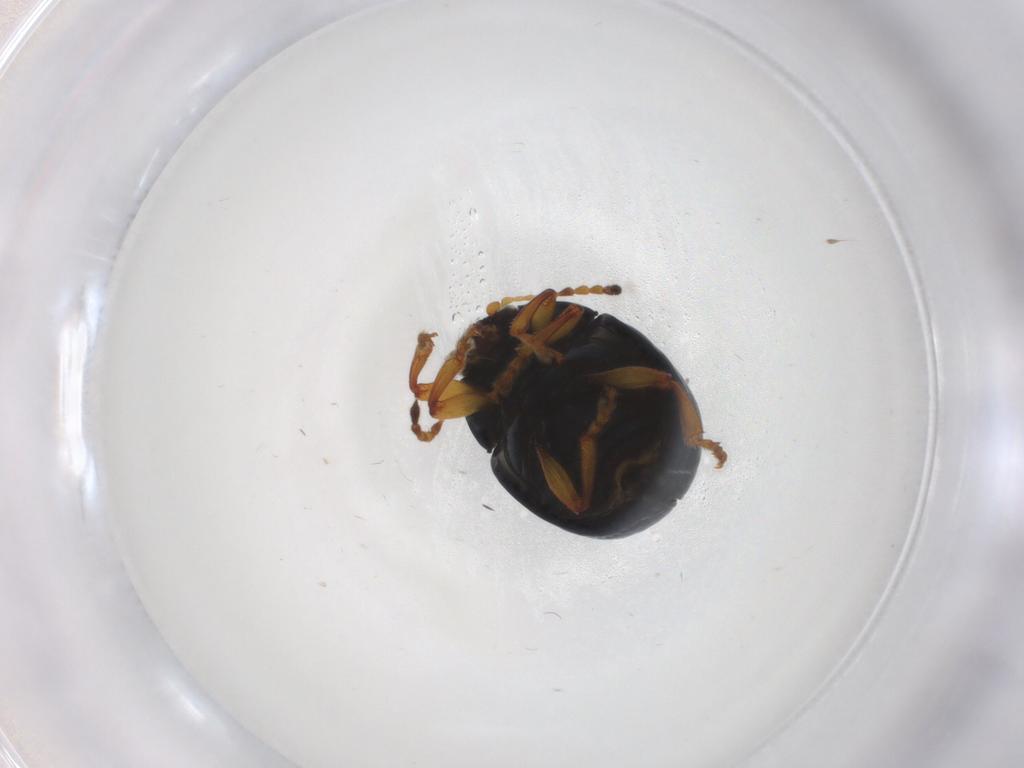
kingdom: Animalia
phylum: Arthropoda
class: Insecta
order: Coleoptera
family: Chrysomelidae
